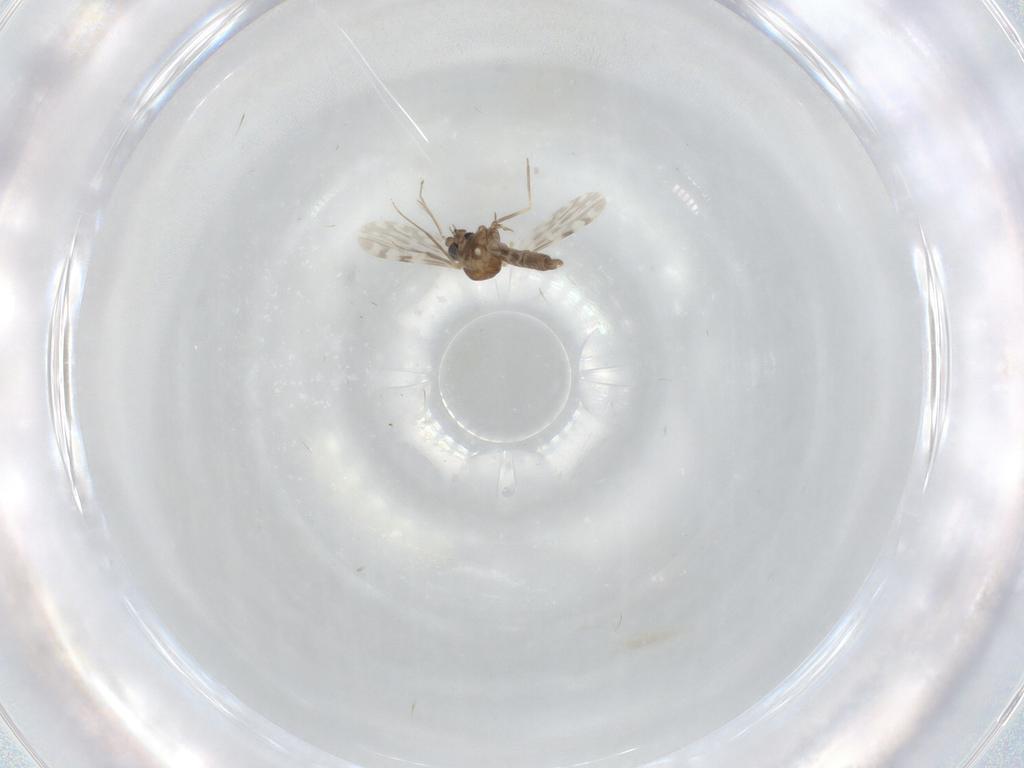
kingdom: Animalia
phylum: Arthropoda
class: Insecta
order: Diptera
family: Ceratopogonidae
